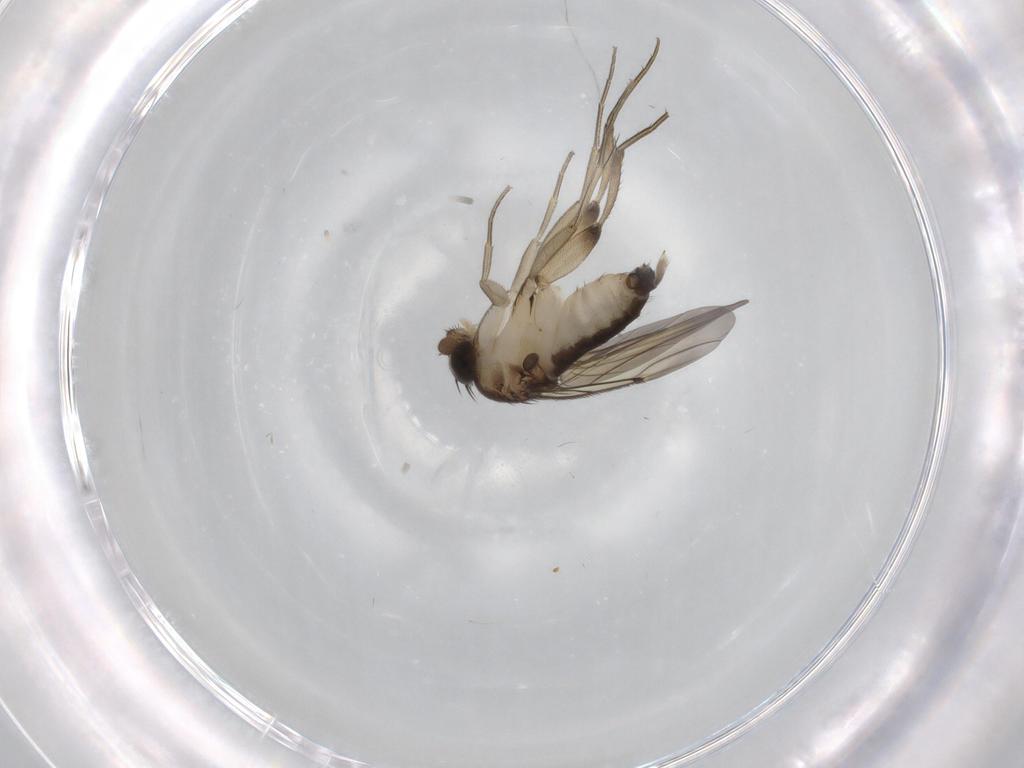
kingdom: Animalia
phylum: Arthropoda
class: Insecta
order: Diptera
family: Phoridae
